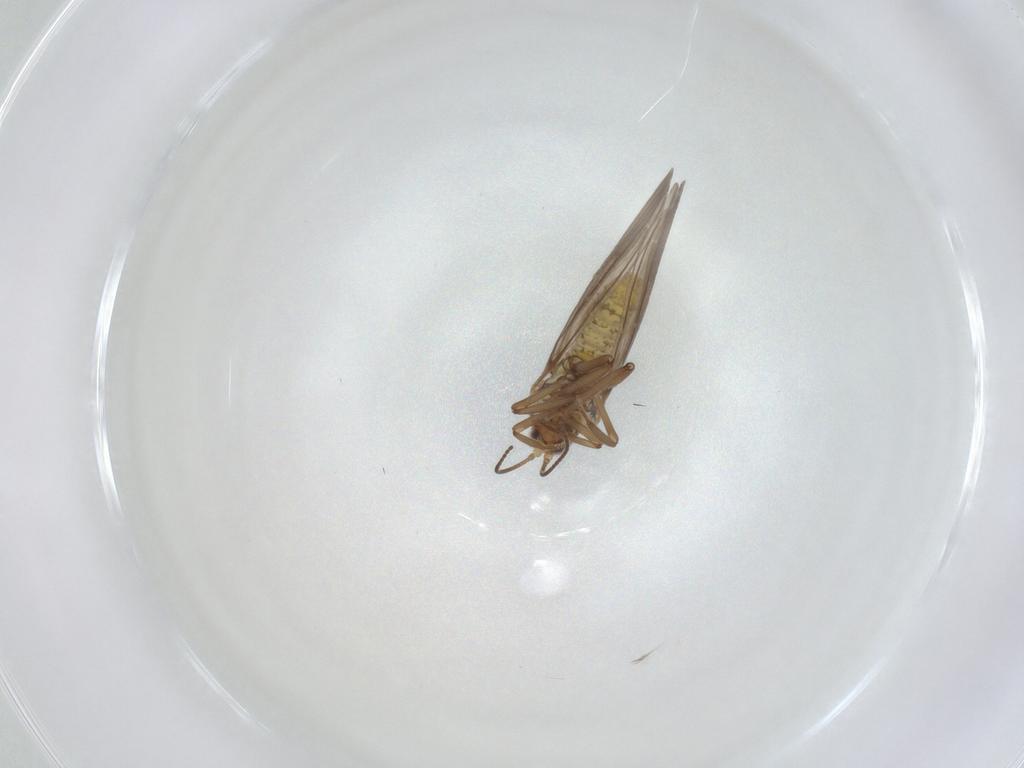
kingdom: Animalia
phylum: Arthropoda
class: Insecta
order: Neuroptera
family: Coniopterygidae
